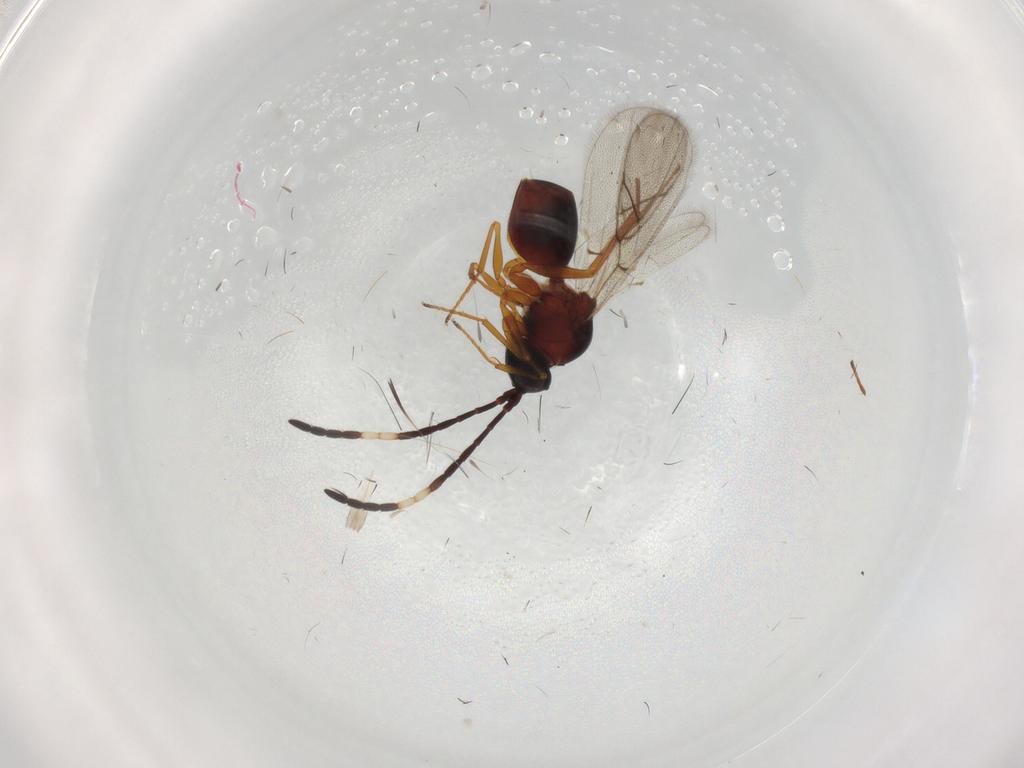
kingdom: Animalia
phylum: Arthropoda
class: Insecta
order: Hymenoptera
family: Figitidae
